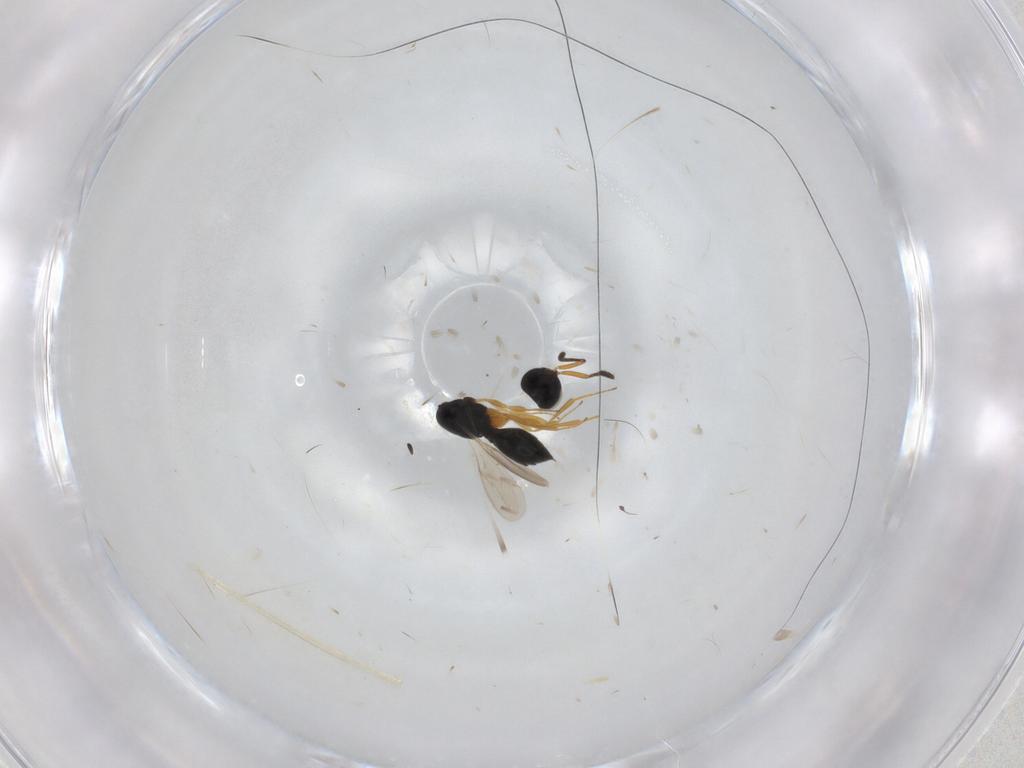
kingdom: Animalia
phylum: Arthropoda
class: Insecta
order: Hymenoptera
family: Scelionidae
